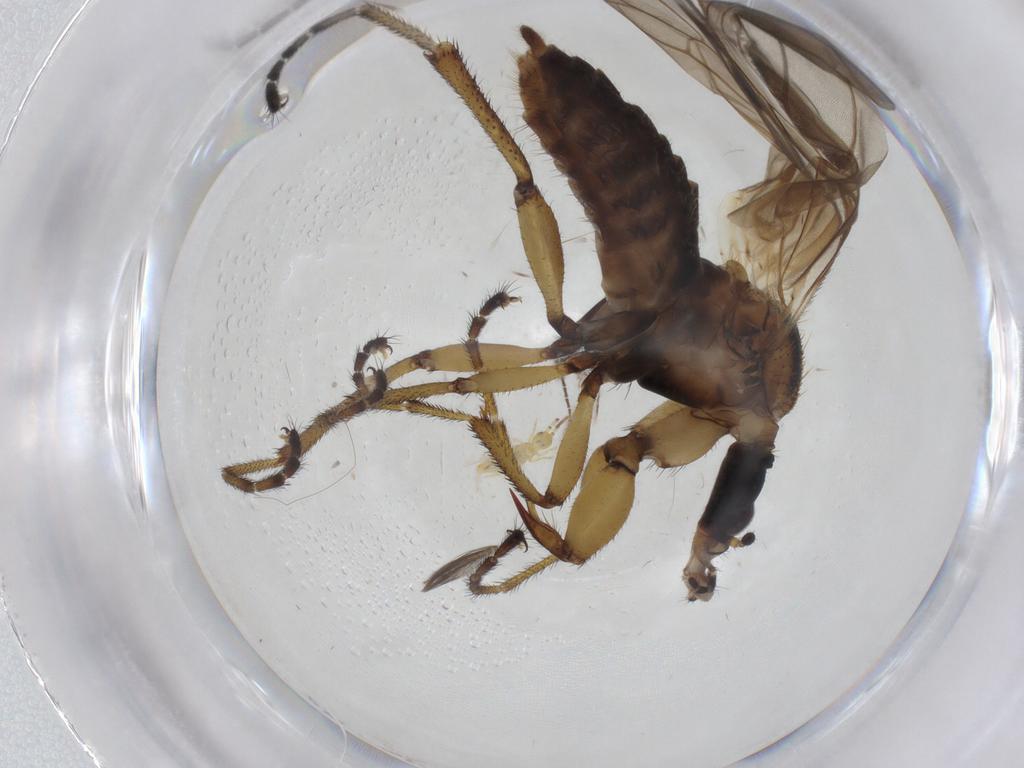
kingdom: Animalia
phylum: Arthropoda
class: Insecta
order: Diptera
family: Bibionidae
